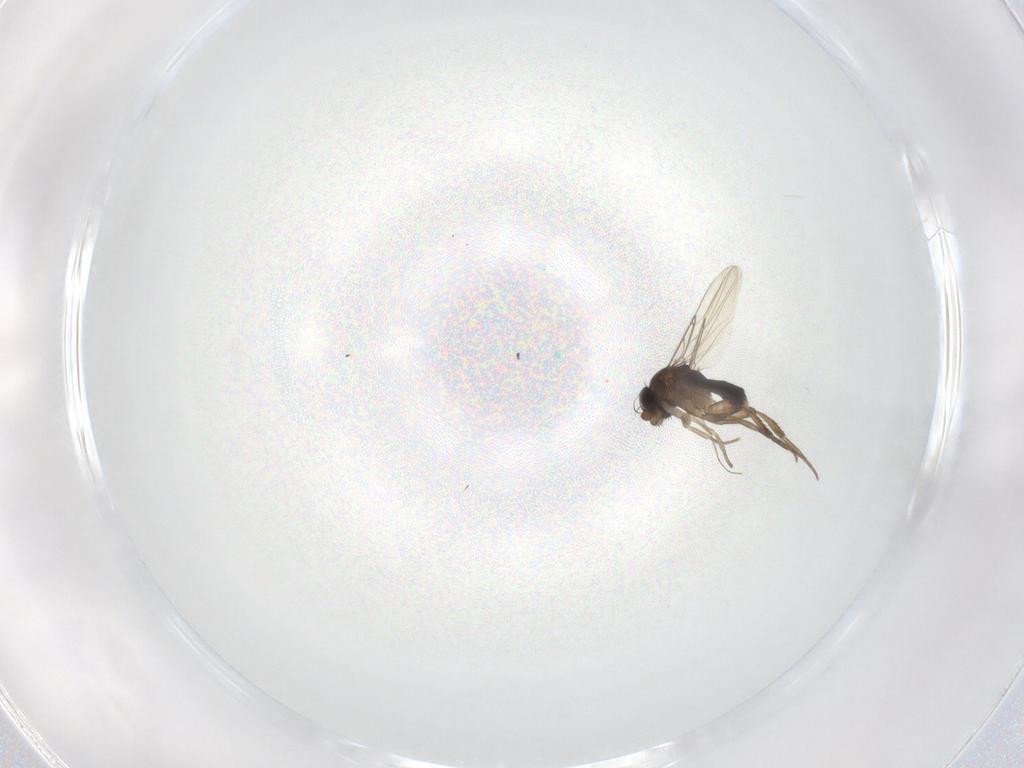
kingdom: Animalia
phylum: Arthropoda
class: Insecta
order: Diptera
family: Phoridae
